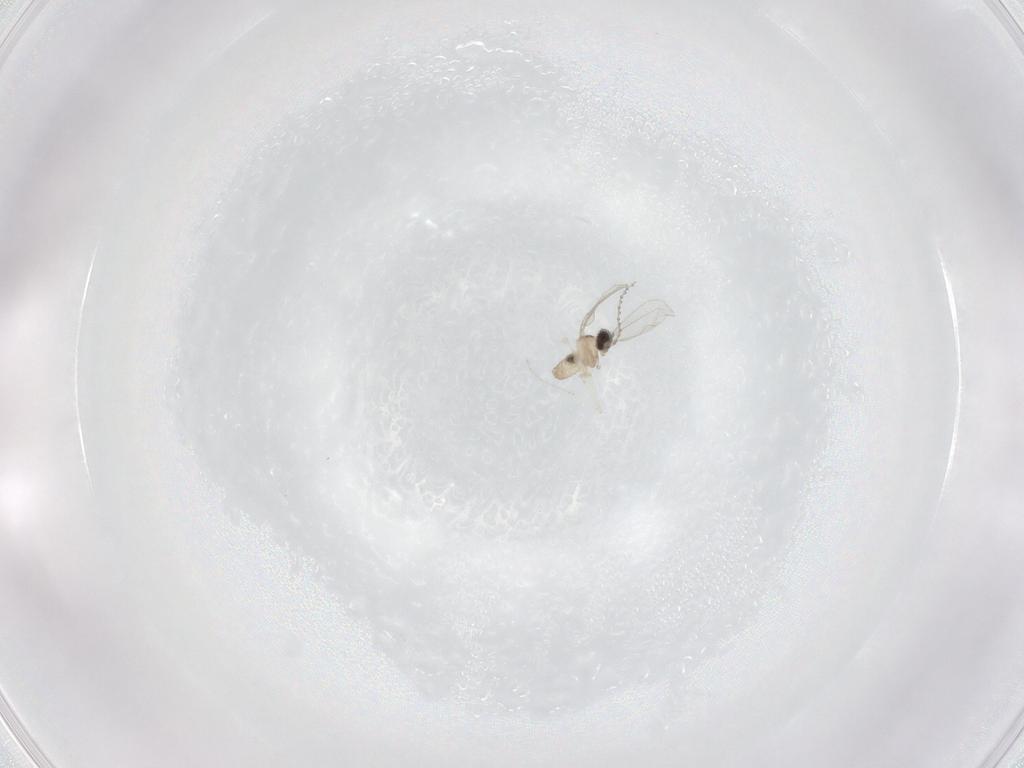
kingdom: Animalia
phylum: Arthropoda
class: Insecta
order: Diptera
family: Cecidomyiidae
